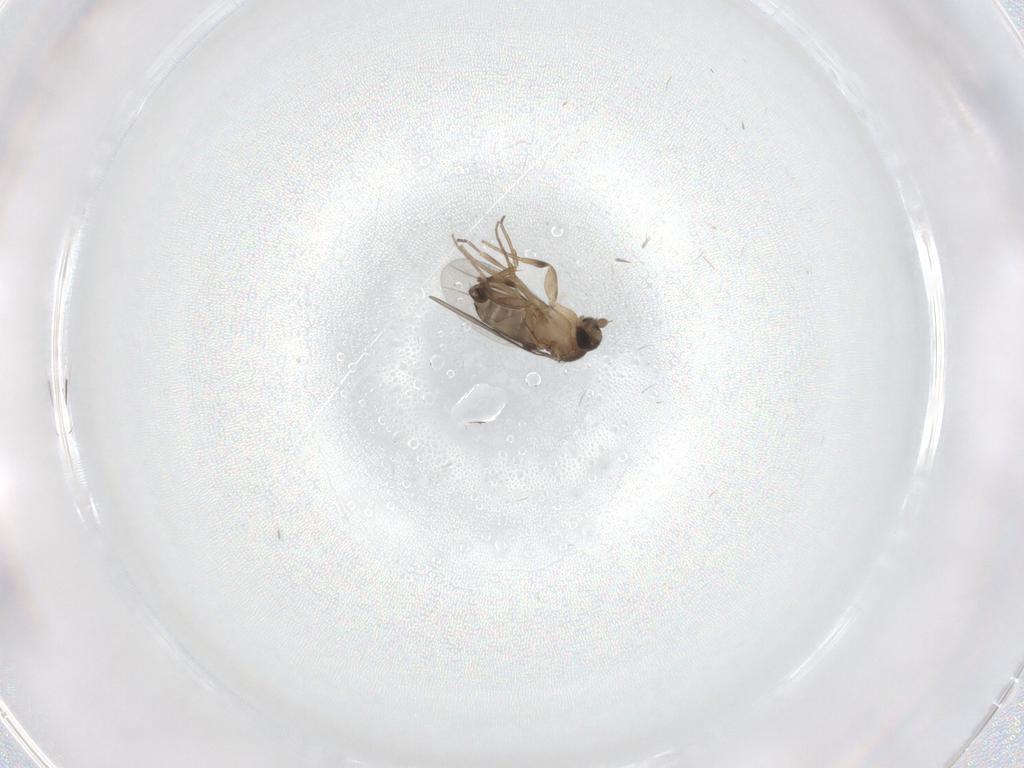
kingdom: Animalia
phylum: Arthropoda
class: Insecta
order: Diptera
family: Phoridae
